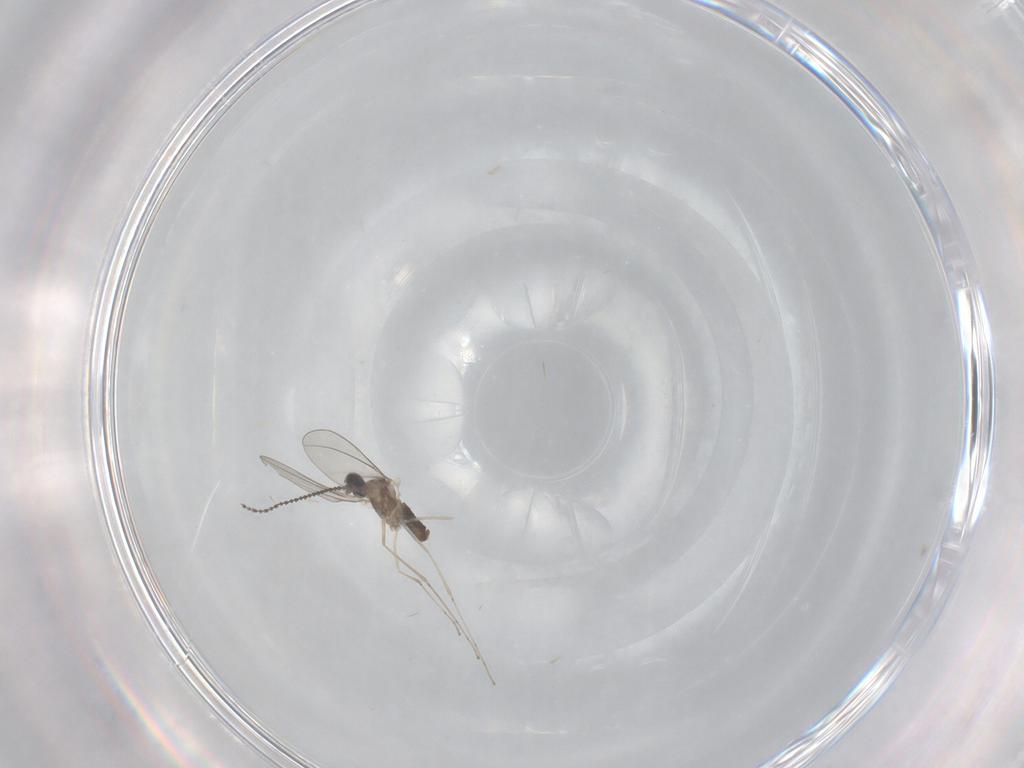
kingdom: Animalia
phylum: Arthropoda
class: Insecta
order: Diptera
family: Cecidomyiidae
